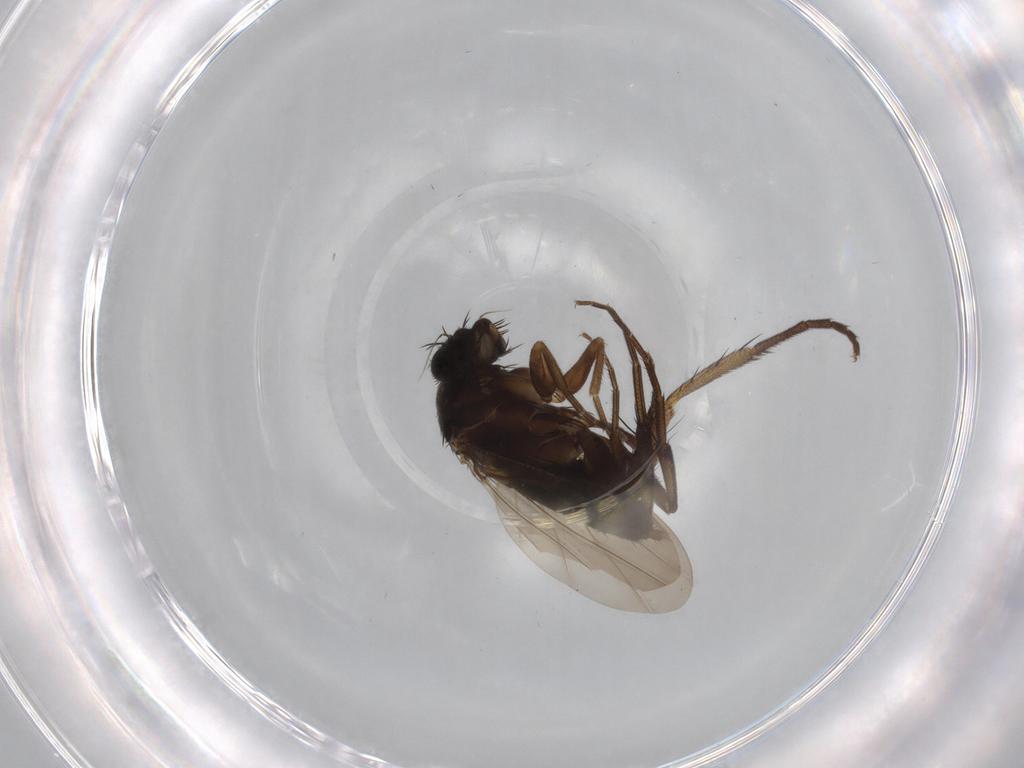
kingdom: Animalia
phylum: Arthropoda
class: Insecta
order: Diptera
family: Phoridae
